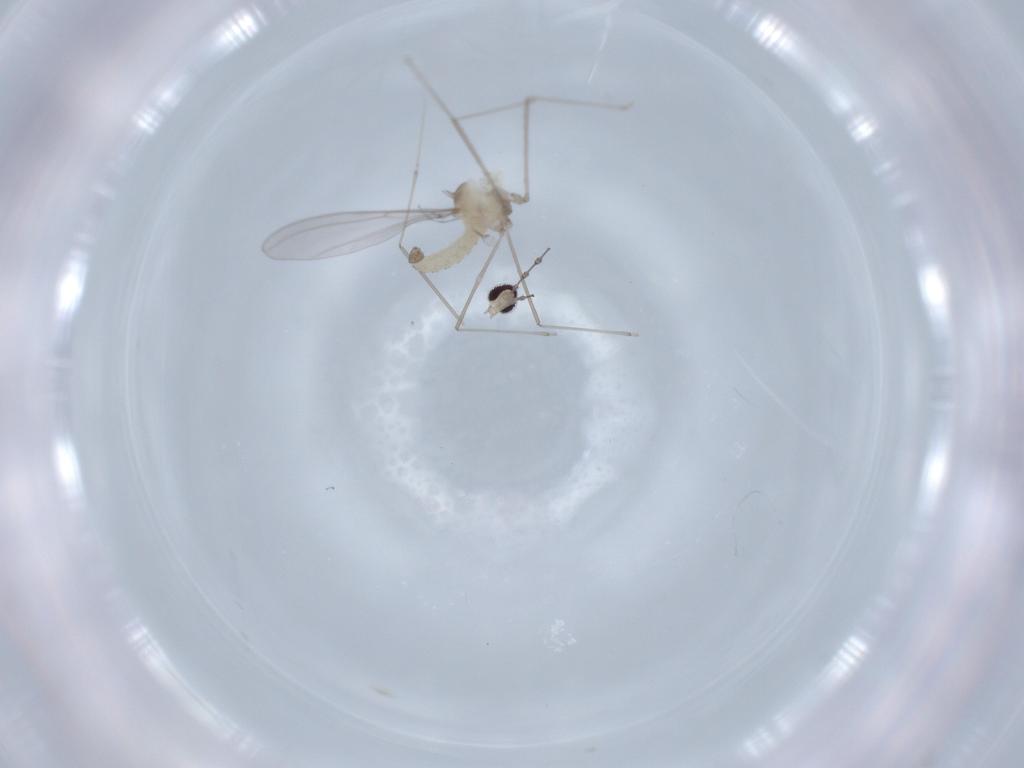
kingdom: Animalia
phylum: Arthropoda
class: Insecta
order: Diptera
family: Cecidomyiidae
